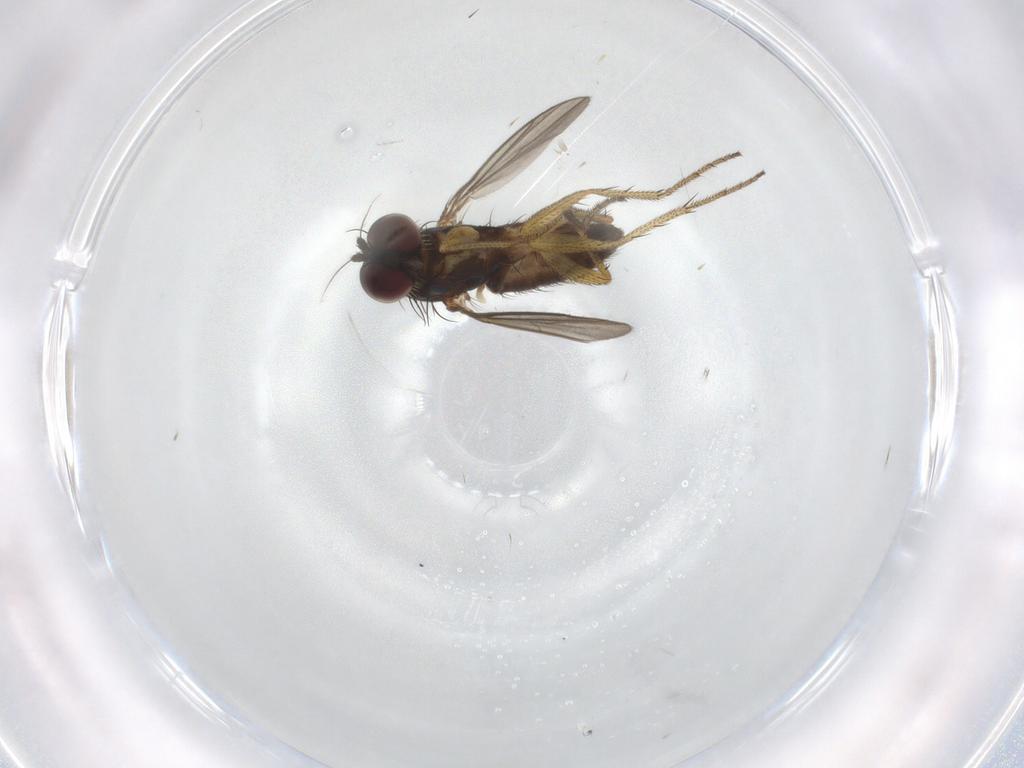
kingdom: Animalia
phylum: Arthropoda
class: Insecta
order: Diptera
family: Dolichopodidae
